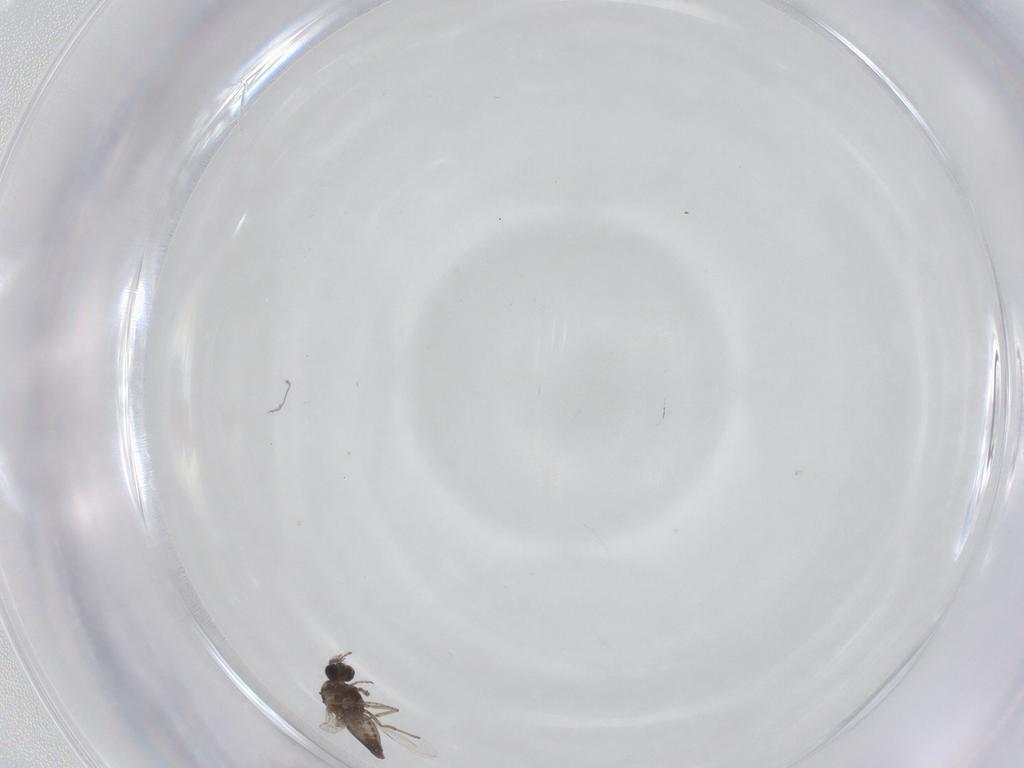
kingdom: Animalia
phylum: Arthropoda
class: Insecta
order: Diptera
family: Ceratopogonidae
